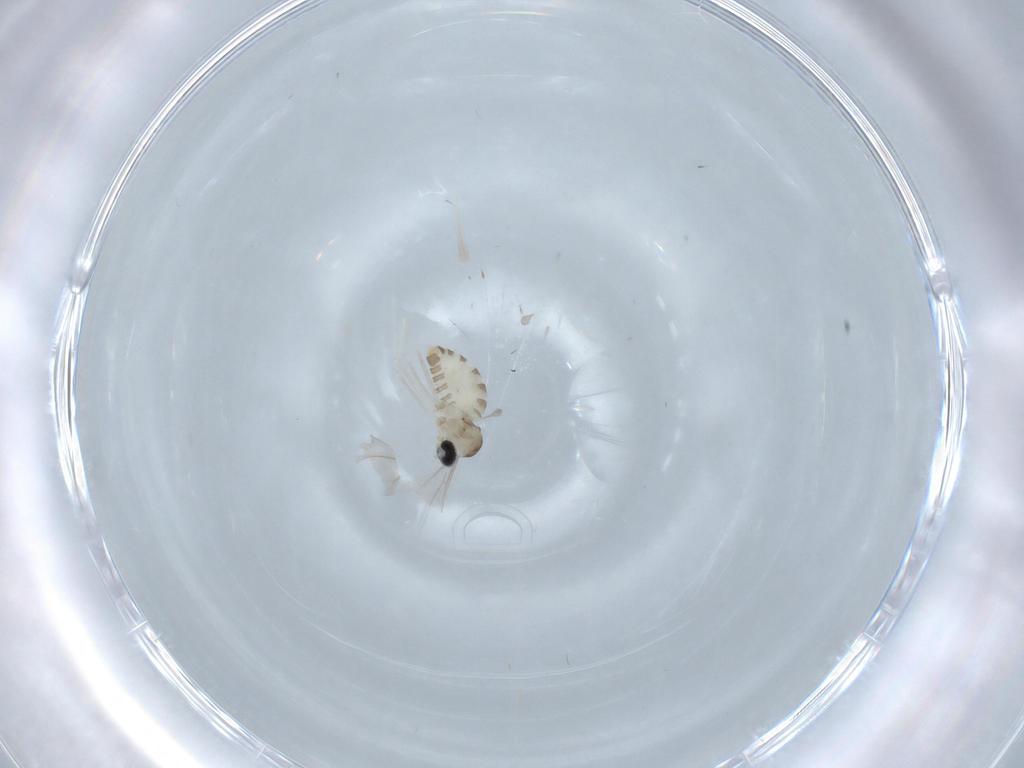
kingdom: Animalia
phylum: Arthropoda
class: Insecta
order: Diptera
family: Cecidomyiidae
